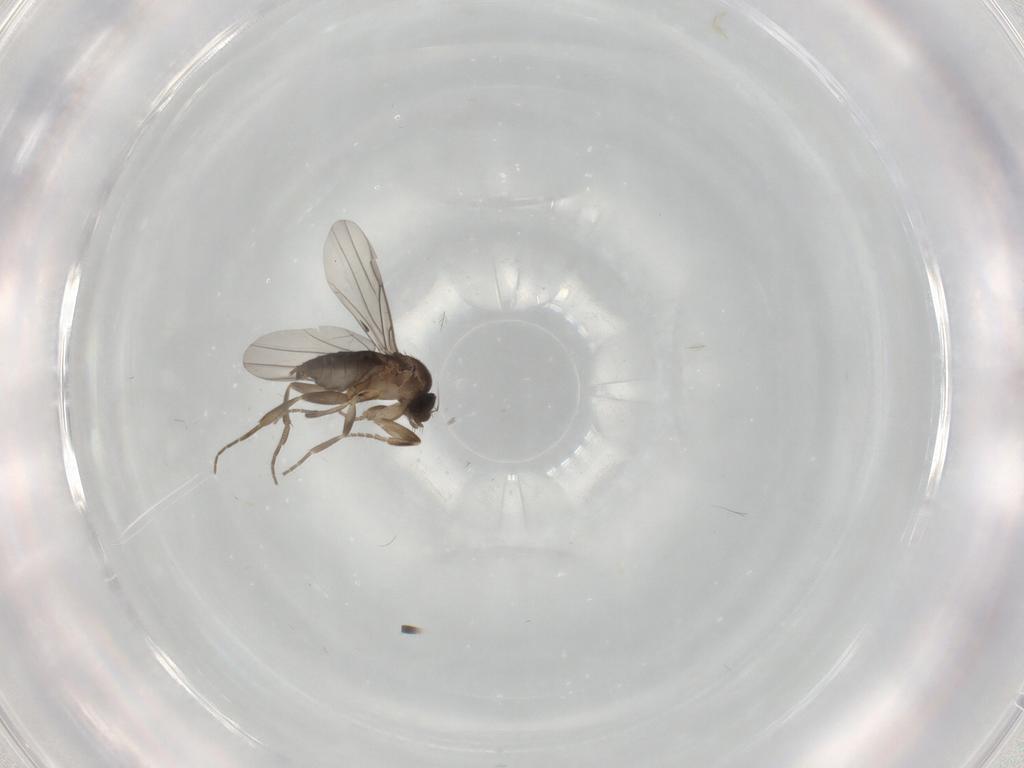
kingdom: Animalia
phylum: Arthropoda
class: Insecta
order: Diptera
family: Phoridae
